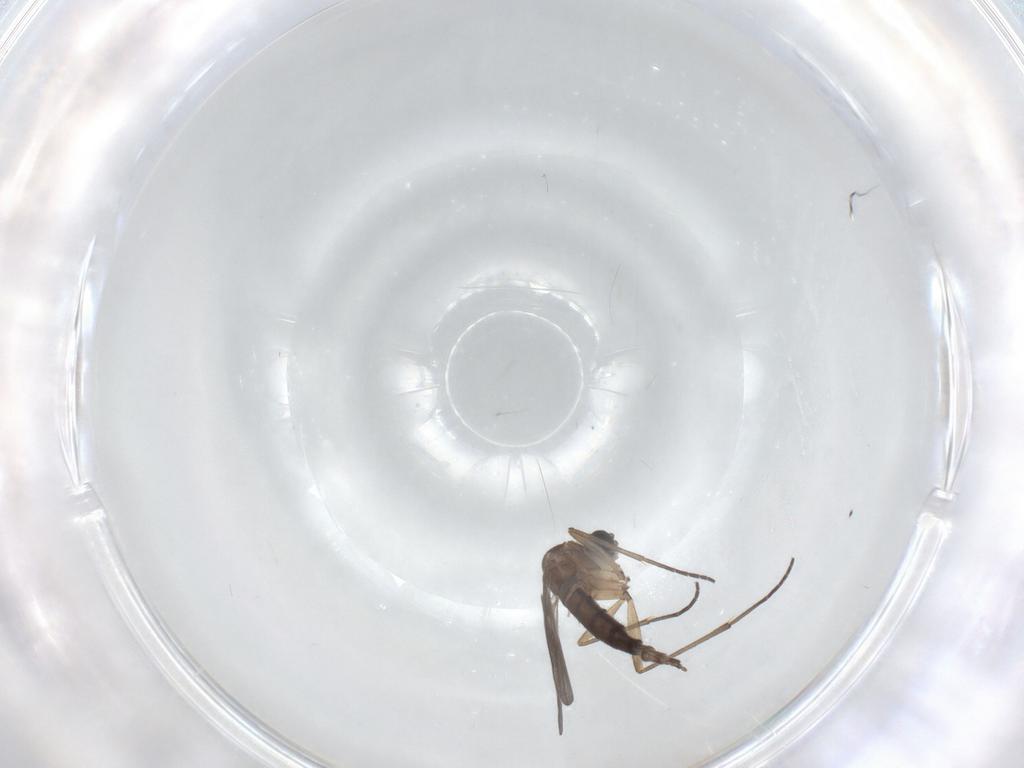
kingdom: Animalia
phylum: Arthropoda
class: Insecta
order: Diptera
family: Sciaridae
